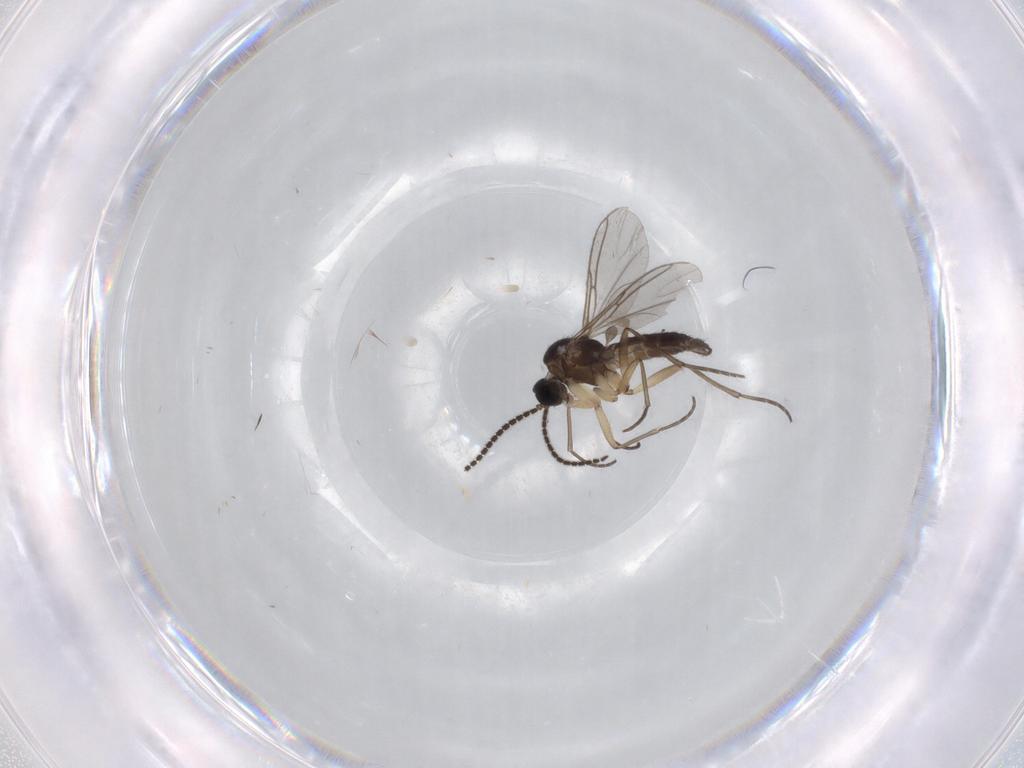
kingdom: Animalia
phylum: Arthropoda
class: Insecta
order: Diptera
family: Sciaridae
